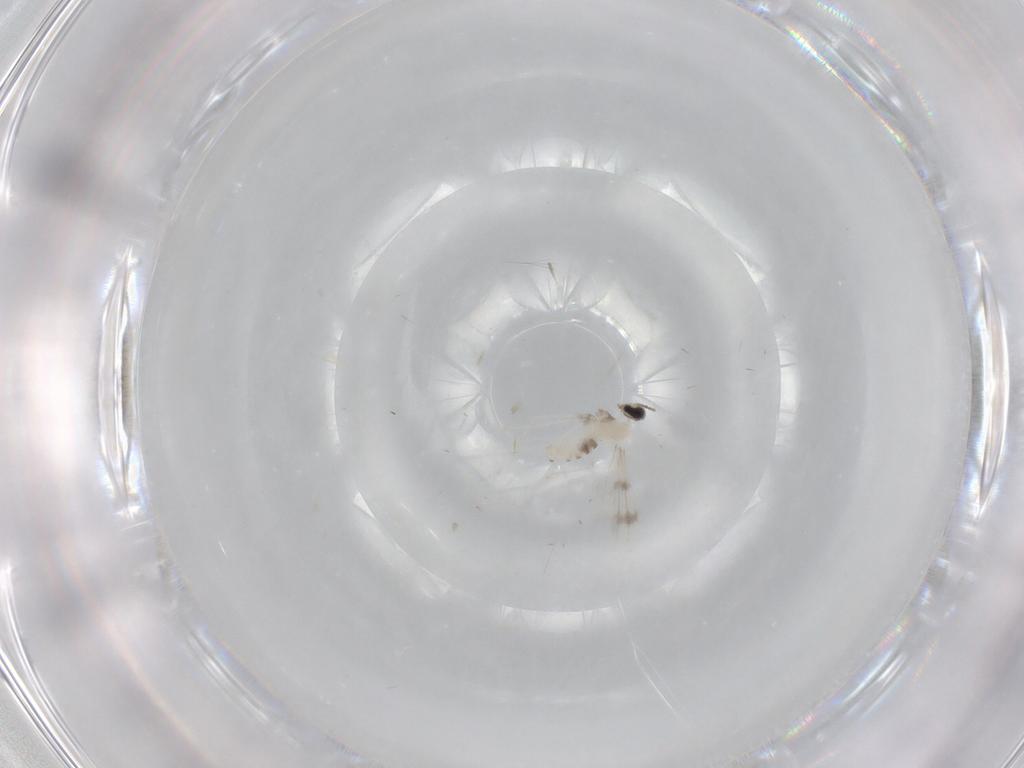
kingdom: Animalia
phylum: Arthropoda
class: Insecta
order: Diptera
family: Cecidomyiidae
